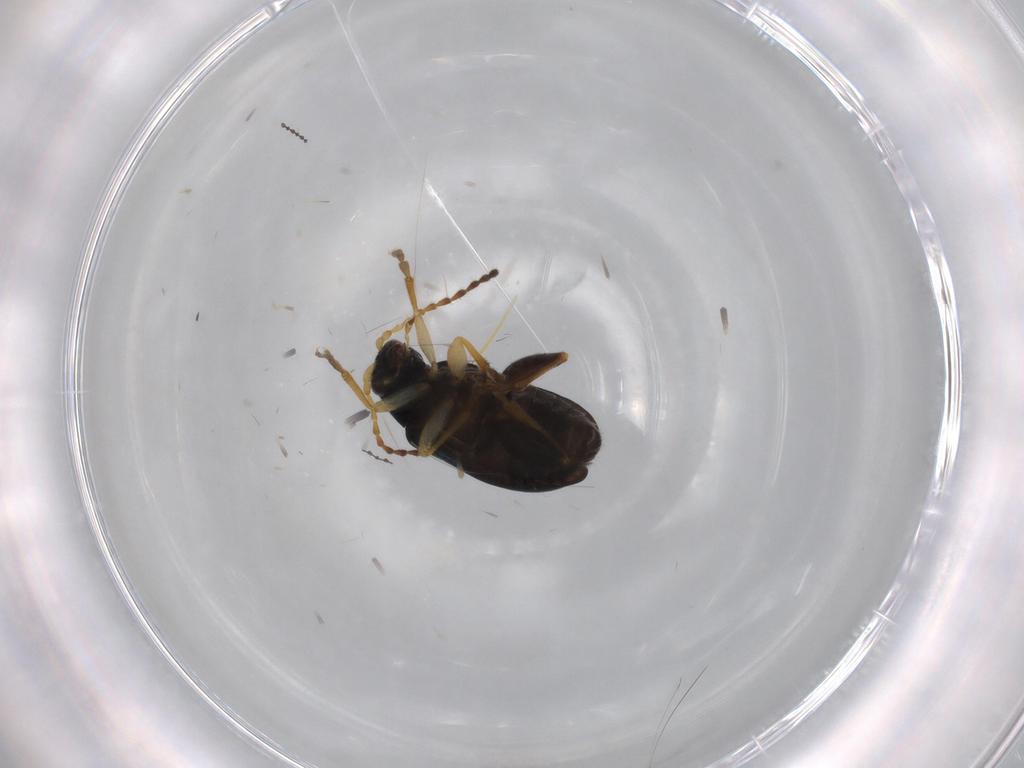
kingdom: Animalia
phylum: Arthropoda
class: Insecta
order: Coleoptera
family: Chrysomelidae
